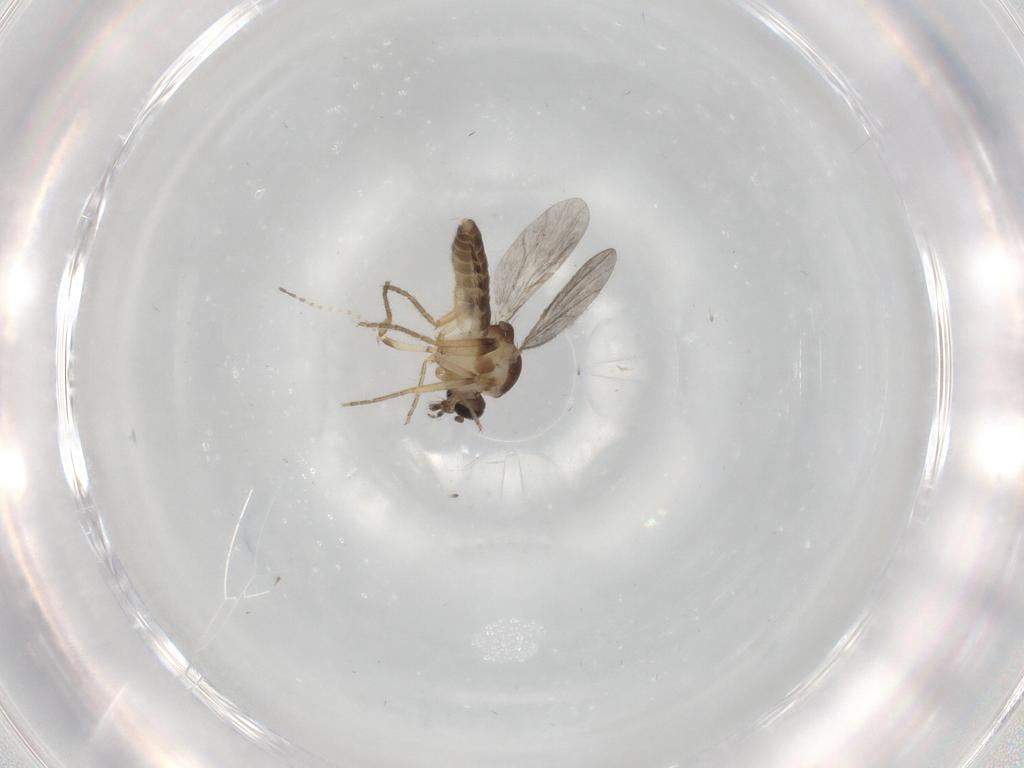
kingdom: Animalia
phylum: Arthropoda
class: Insecta
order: Diptera
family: Ceratopogonidae
